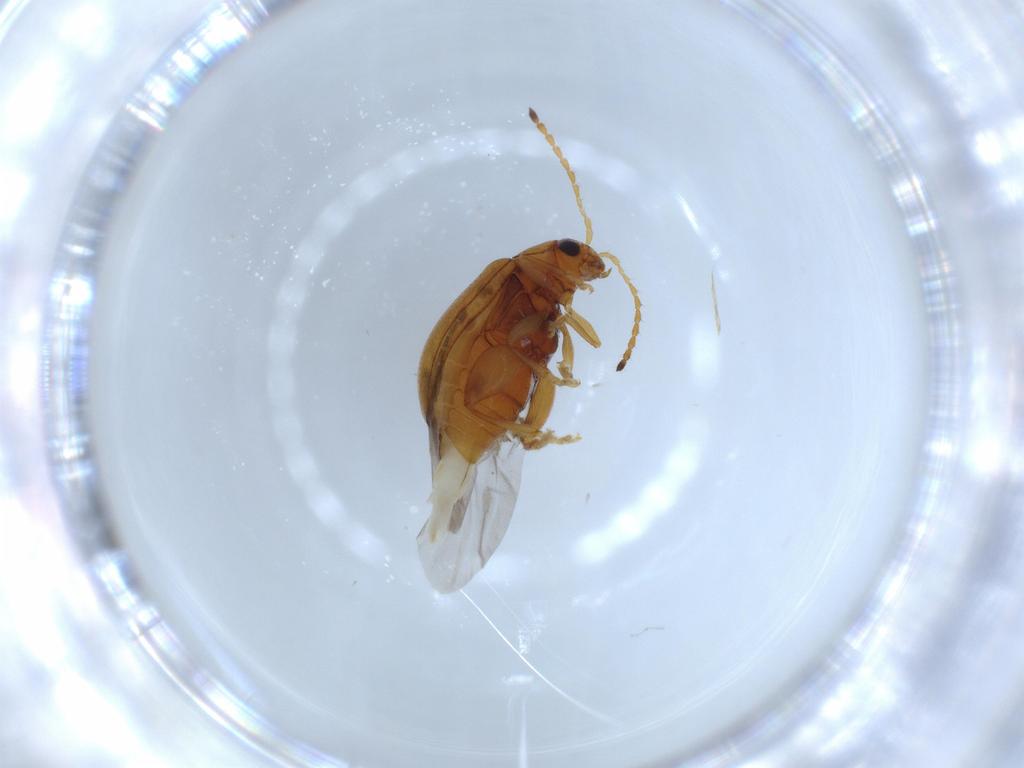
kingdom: Animalia
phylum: Arthropoda
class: Insecta
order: Coleoptera
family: Chrysomelidae
